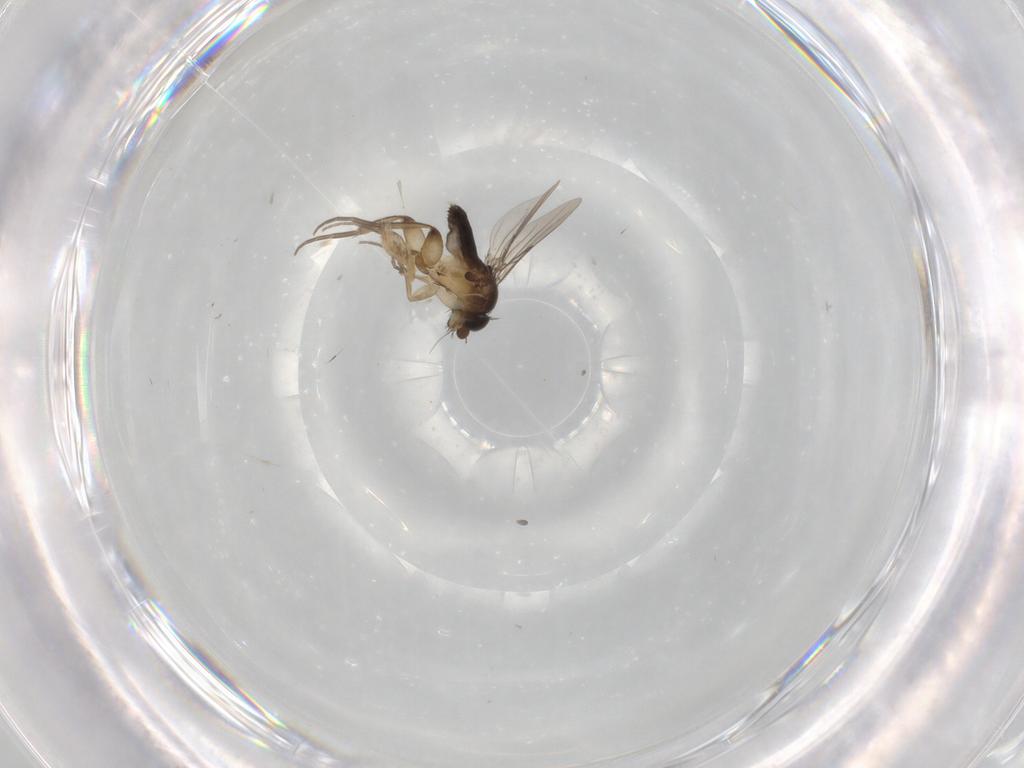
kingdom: Animalia
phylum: Arthropoda
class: Insecta
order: Diptera
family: Phoridae
